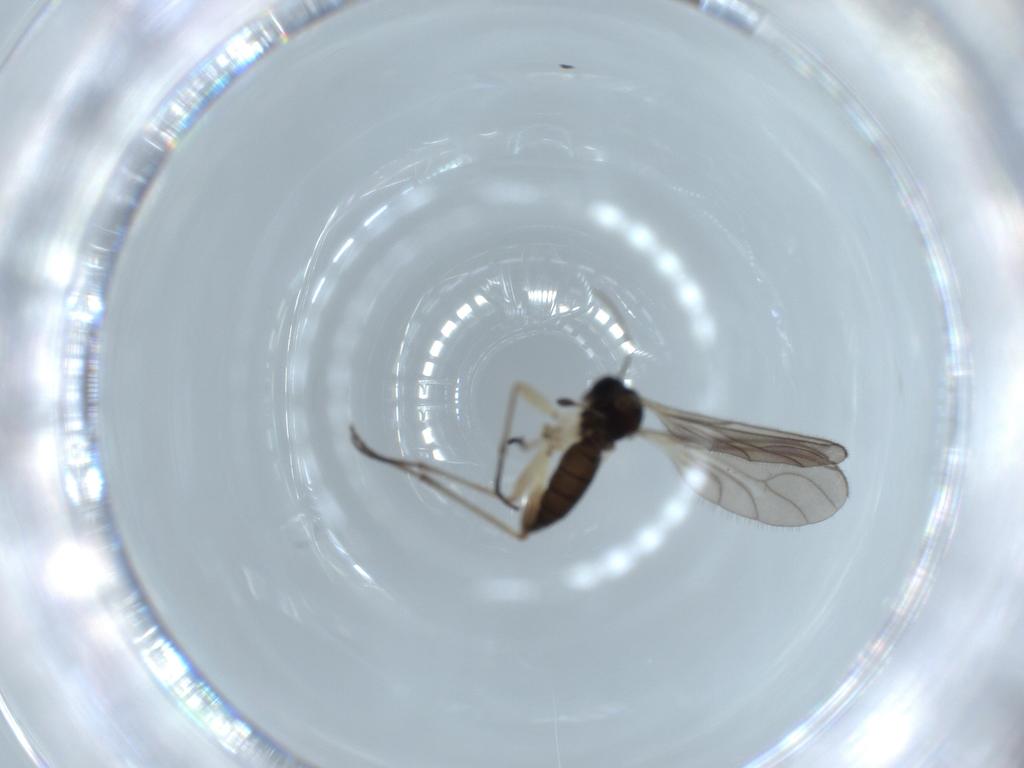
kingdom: Animalia
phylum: Arthropoda
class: Insecta
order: Diptera
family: Sciaridae
